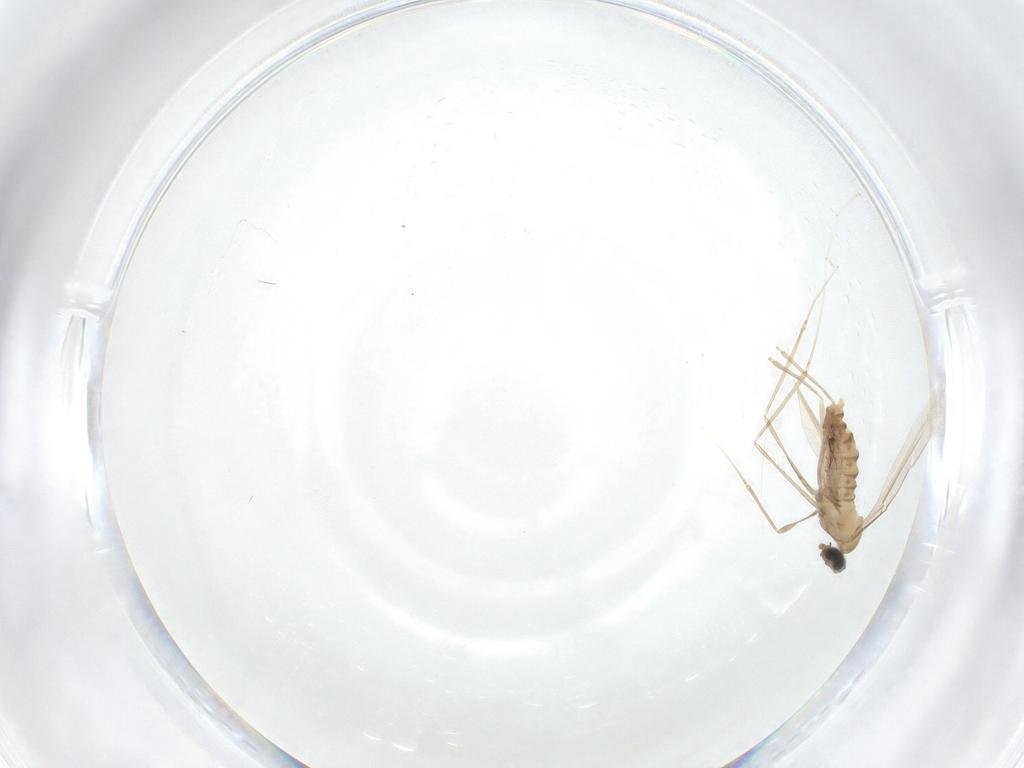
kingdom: Animalia
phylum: Arthropoda
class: Insecta
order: Diptera
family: Cecidomyiidae
